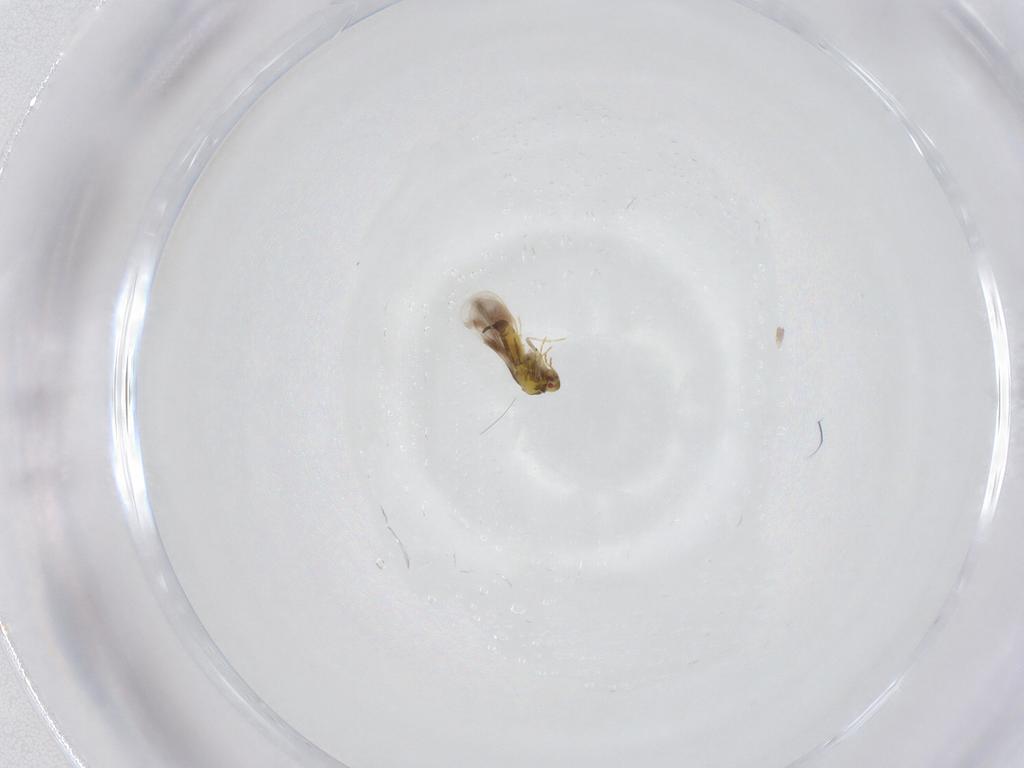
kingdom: Animalia
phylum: Arthropoda
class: Insecta
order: Hemiptera
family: Aleyrodidae
